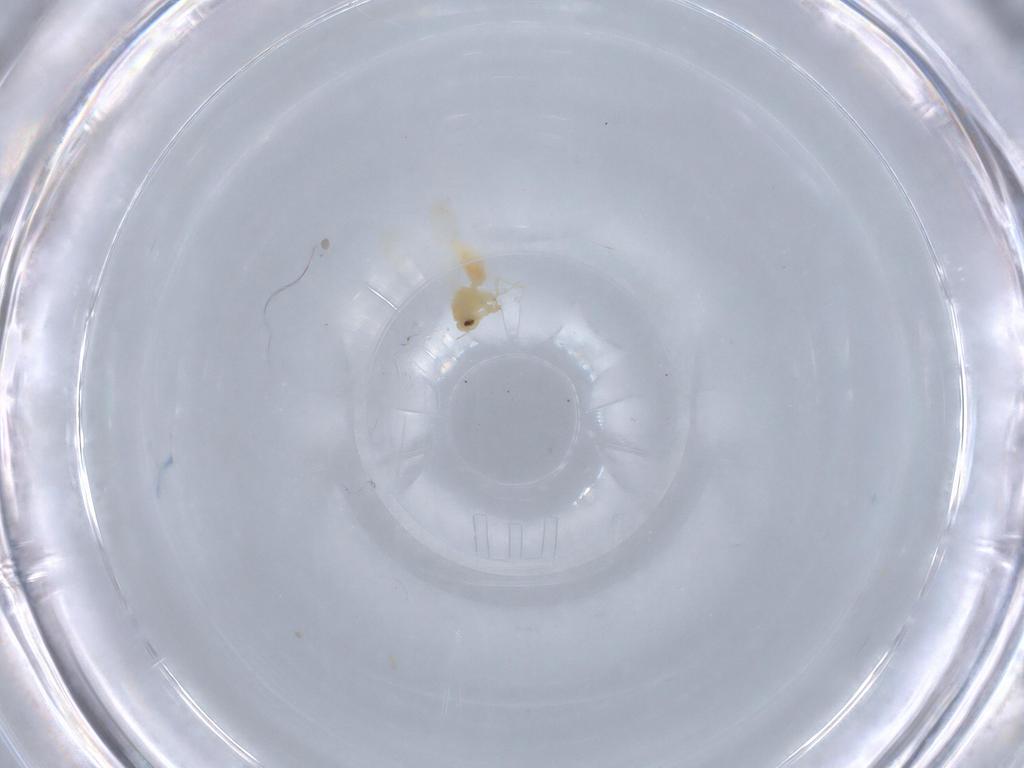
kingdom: Animalia
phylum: Arthropoda
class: Insecta
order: Hemiptera
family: Aleyrodidae
